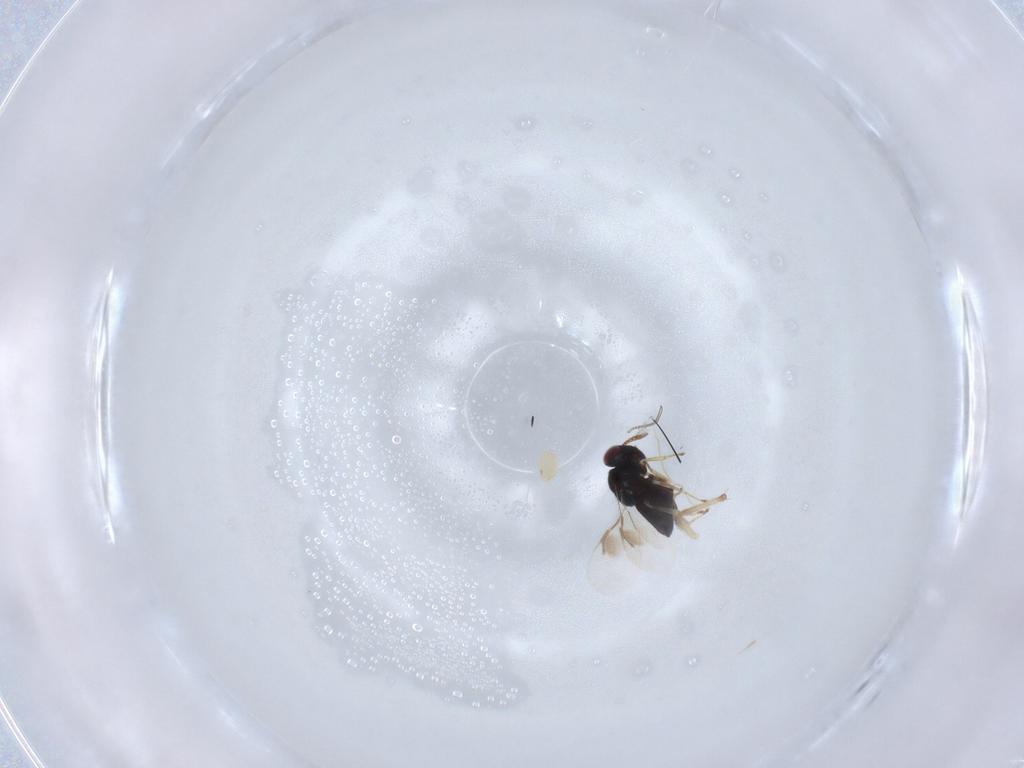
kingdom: Animalia
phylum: Arthropoda
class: Insecta
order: Hymenoptera
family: Pteromalidae
